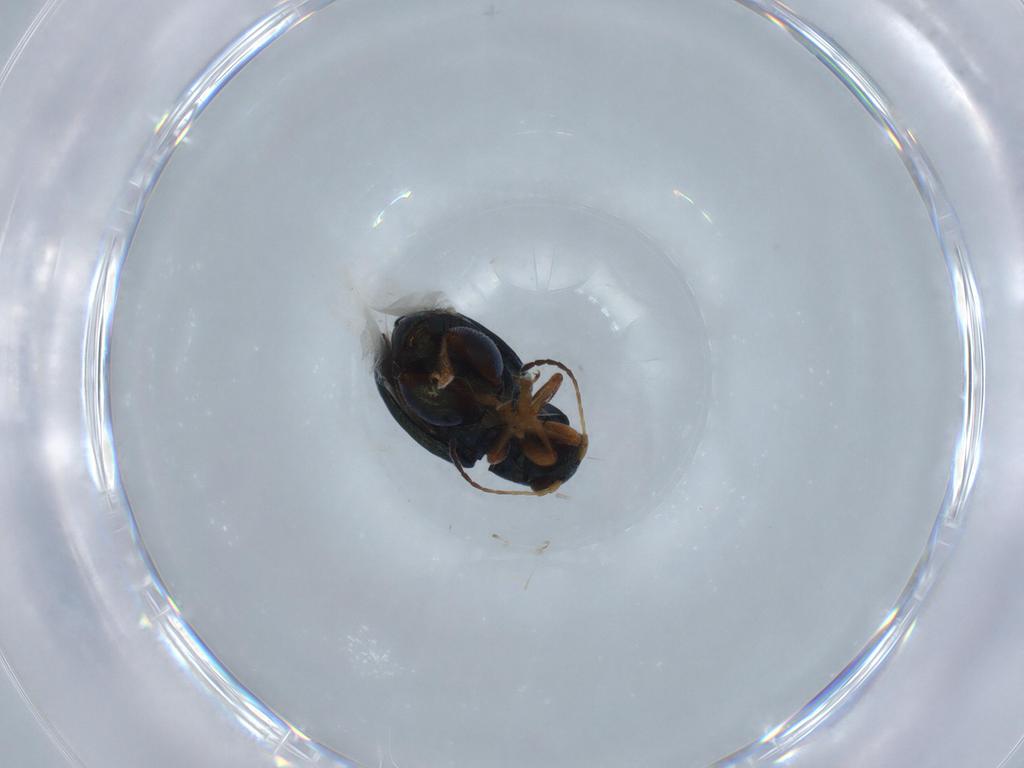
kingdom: Animalia
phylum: Arthropoda
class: Insecta
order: Coleoptera
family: Chrysomelidae
